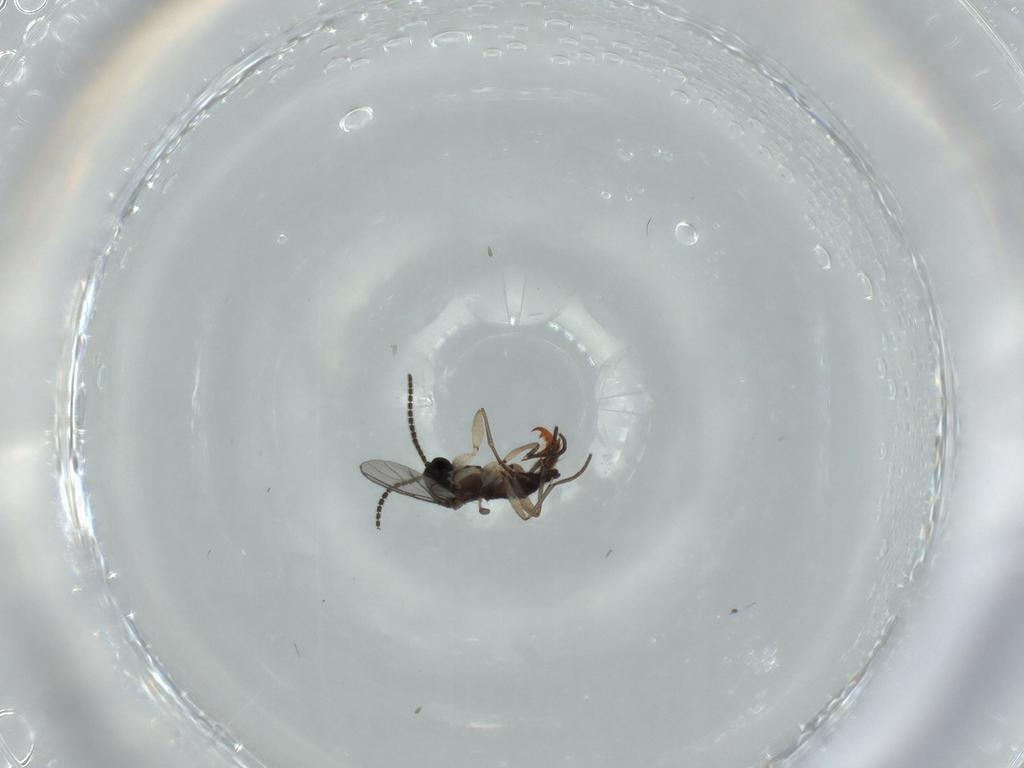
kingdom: Animalia
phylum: Arthropoda
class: Insecta
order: Diptera
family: Sciaridae
